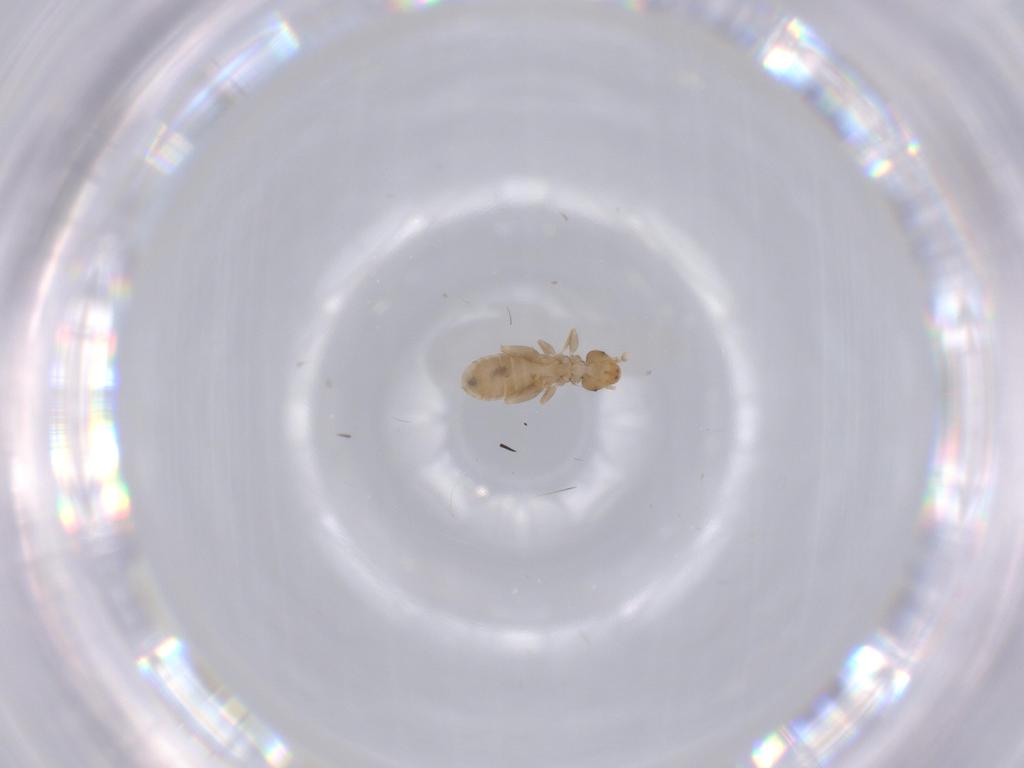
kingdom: Animalia
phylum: Arthropoda
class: Insecta
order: Psocodea
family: Liposcelididae
